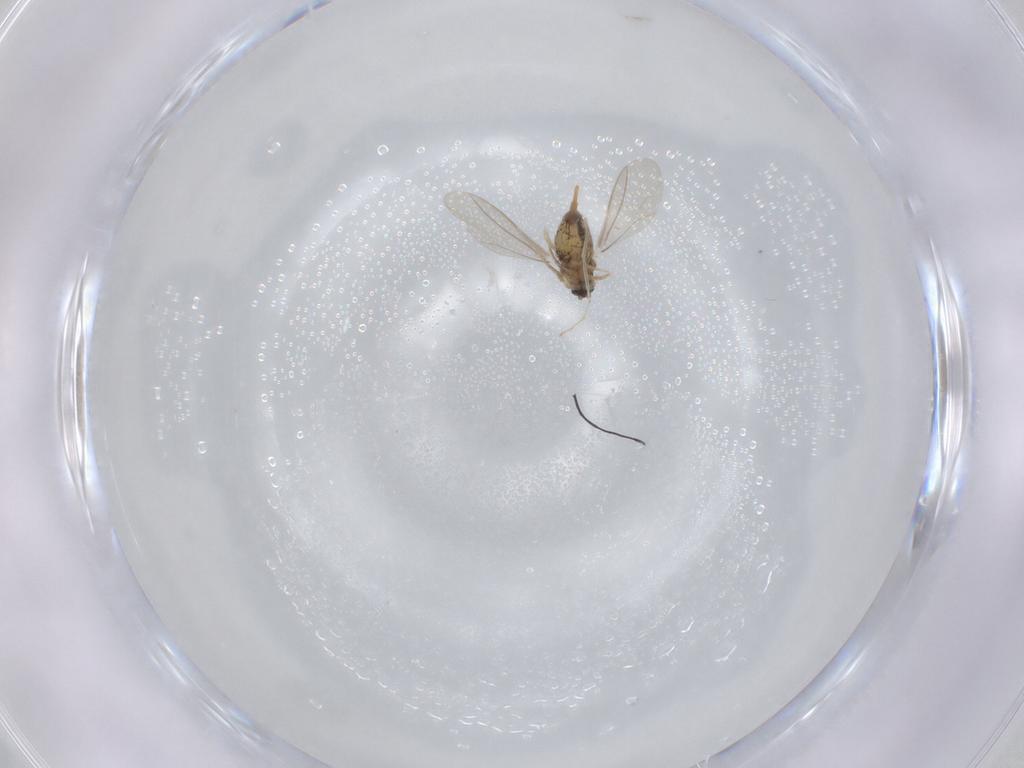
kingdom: Animalia
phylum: Arthropoda
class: Insecta
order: Diptera
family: Cecidomyiidae
